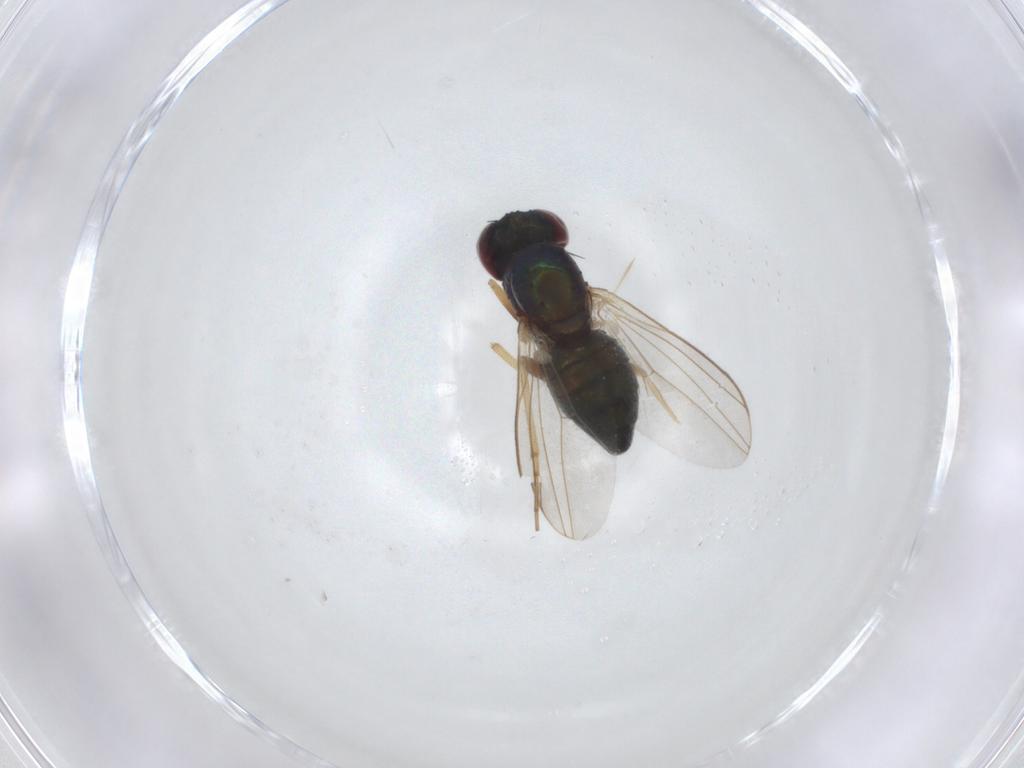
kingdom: Animalia
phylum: Arthropoda
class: Insecta
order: Diptera
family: Dolichopodidae
